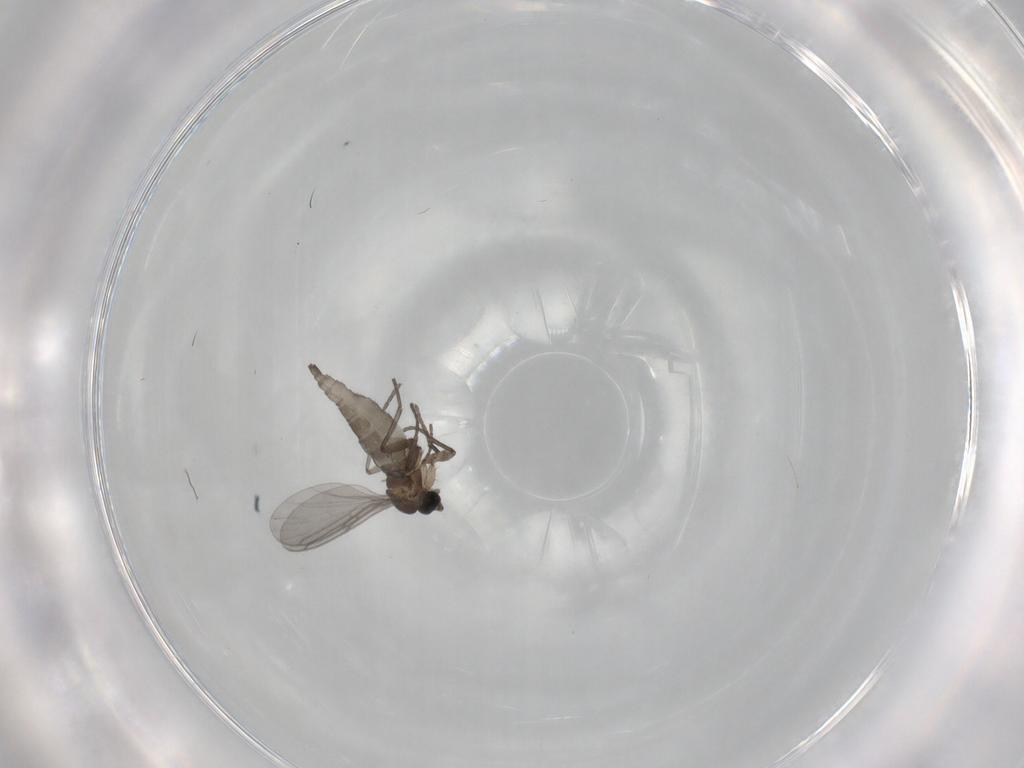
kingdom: Animalia
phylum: Arthropoda
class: Insecta
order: Diptera
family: Sciaridae
